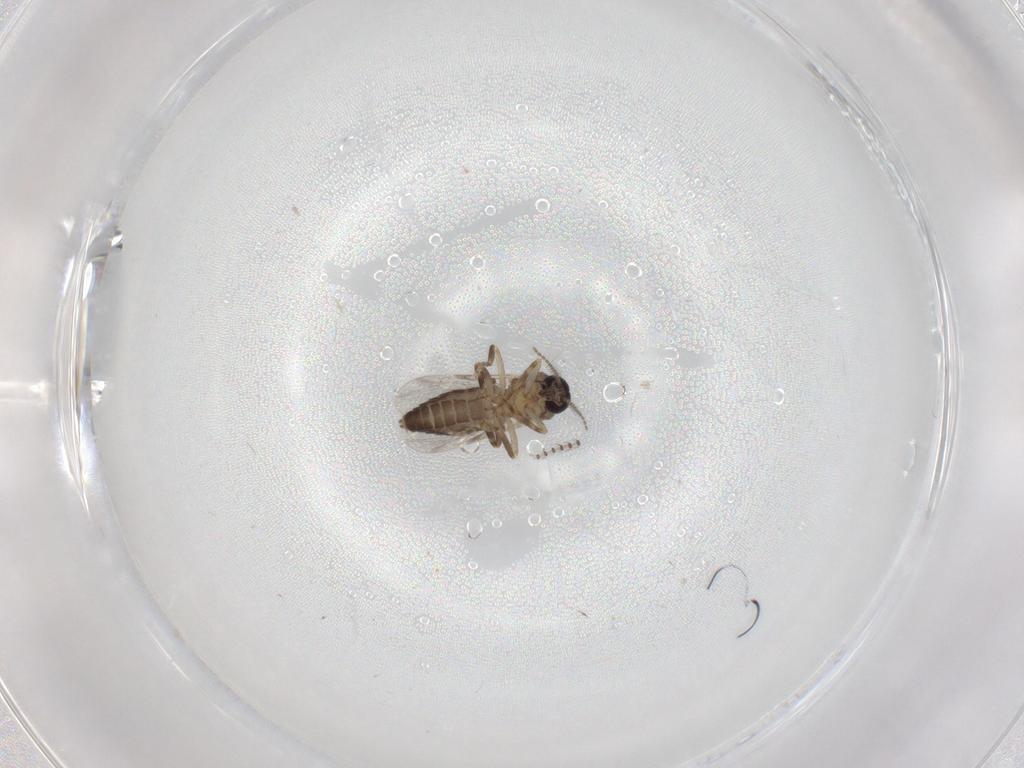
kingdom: Animalia
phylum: Arthropoda
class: Insecta
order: Diptera
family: Ceratopogonidae
